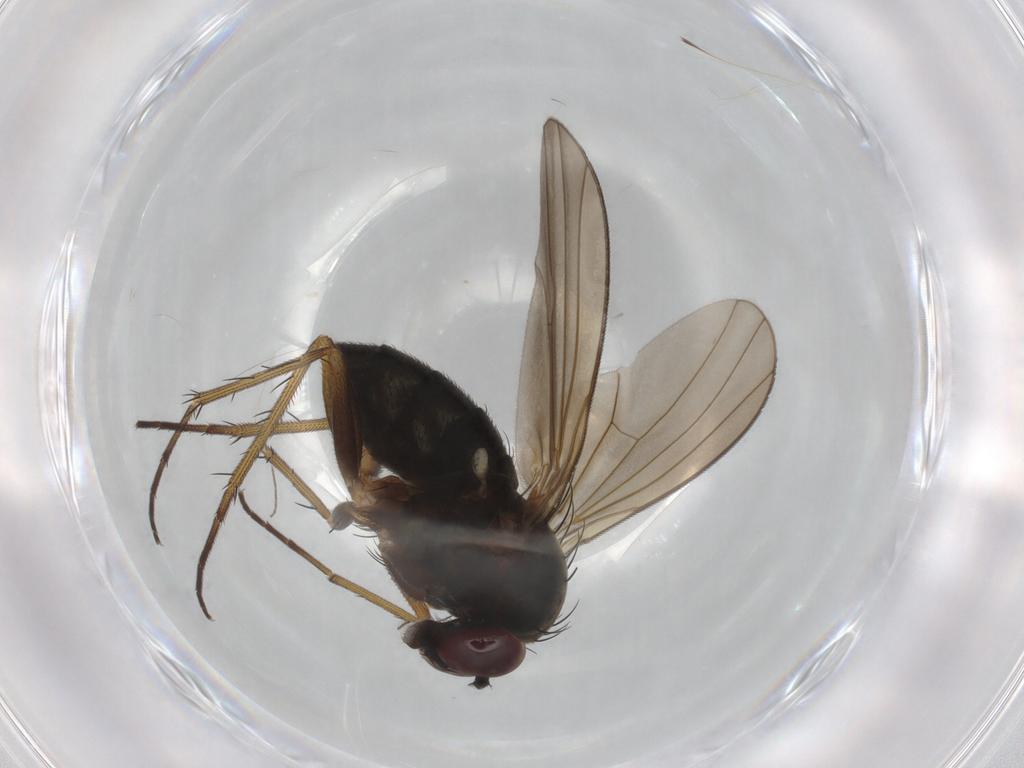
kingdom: Animalia
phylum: Arthropoda
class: Insecta
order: Diptera
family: Dolichopodidae
